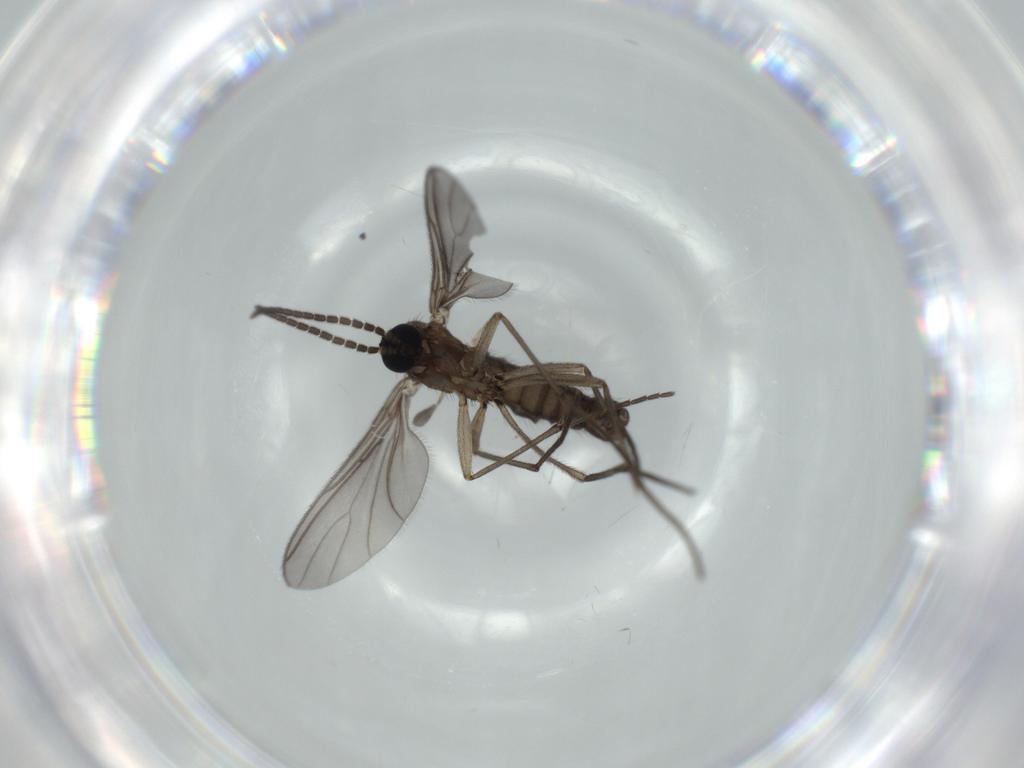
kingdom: Animalia
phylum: Arthropoda
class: Insecta
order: Diptera
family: Sciaridae
